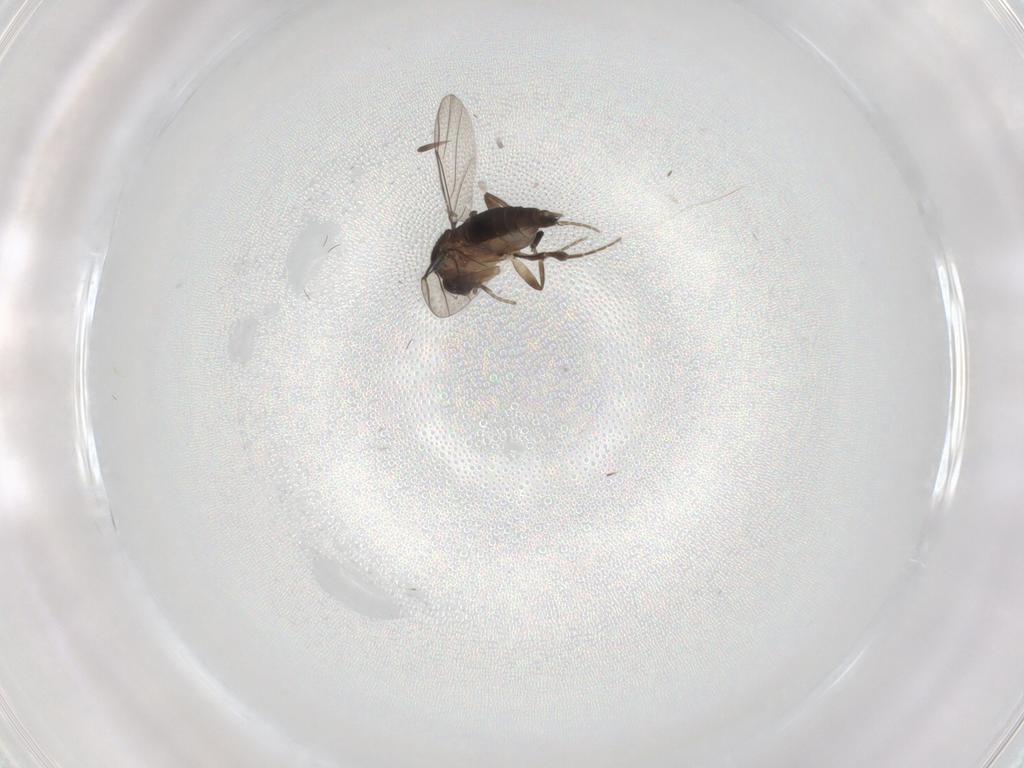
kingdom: Animalia
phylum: Arthropoda
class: Insecta
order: Diptera
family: Phoridae
